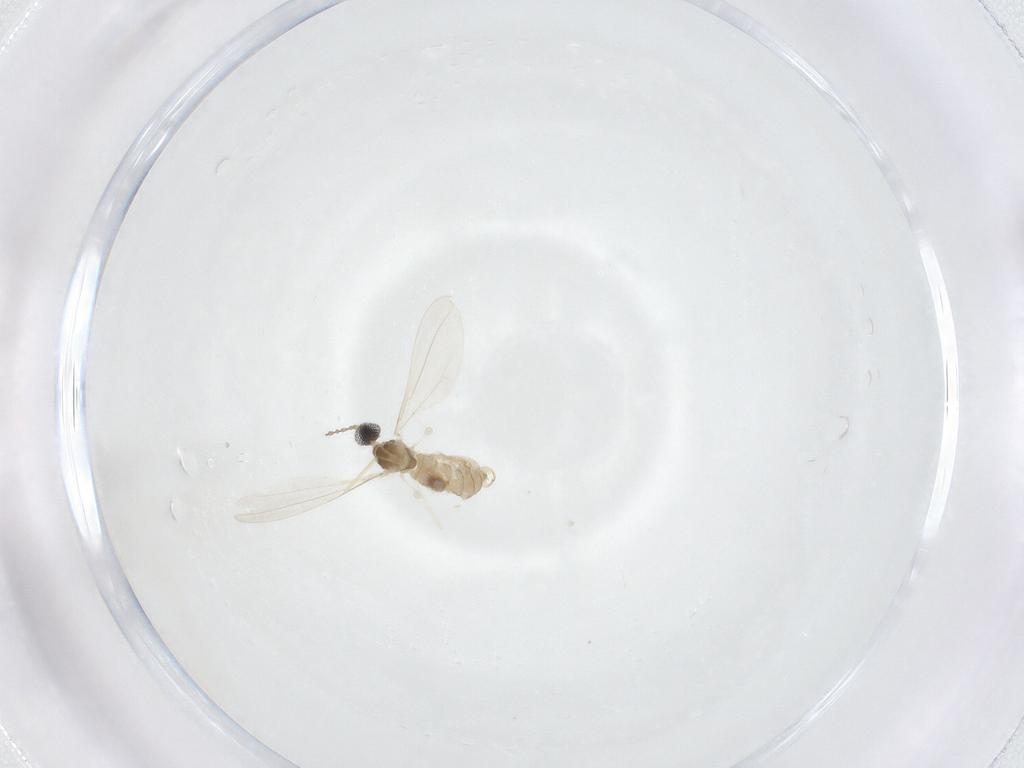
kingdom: Animalia
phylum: Arthropoda
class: Insecta
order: Diptera
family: Cecidomyiidae
